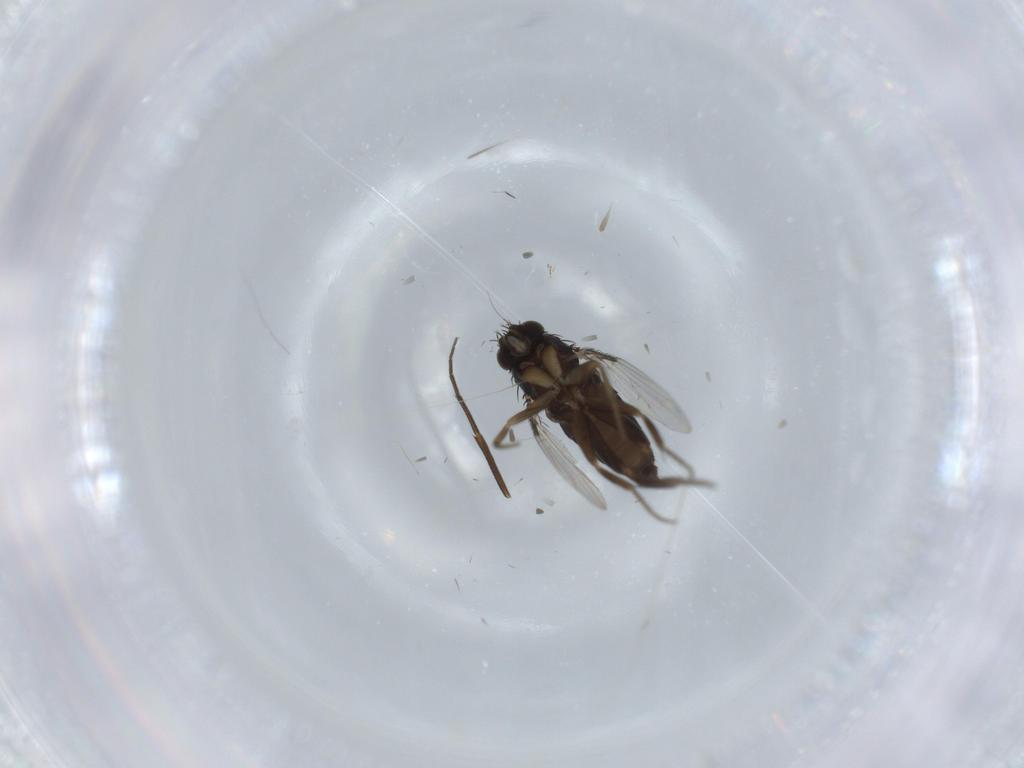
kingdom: Animalia
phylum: Arthropoda
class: Insecta
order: Diptera
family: Phoridae
